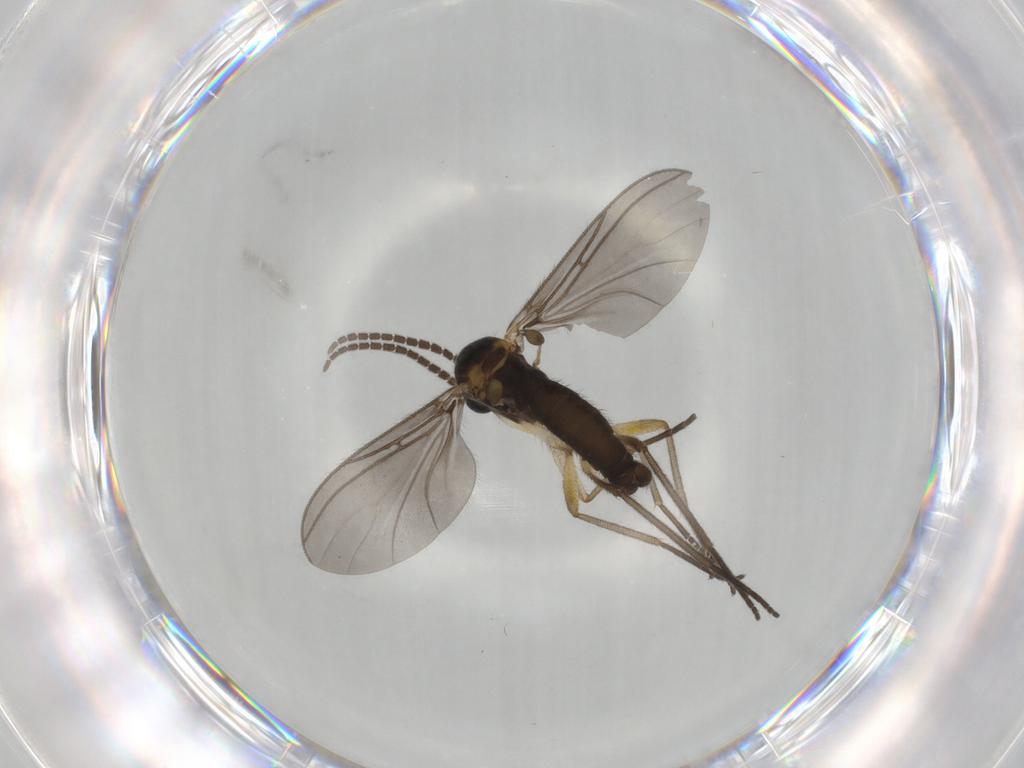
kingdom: Animalia
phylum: Arthropoda
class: Insecta
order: Diptera
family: Sciaridae
